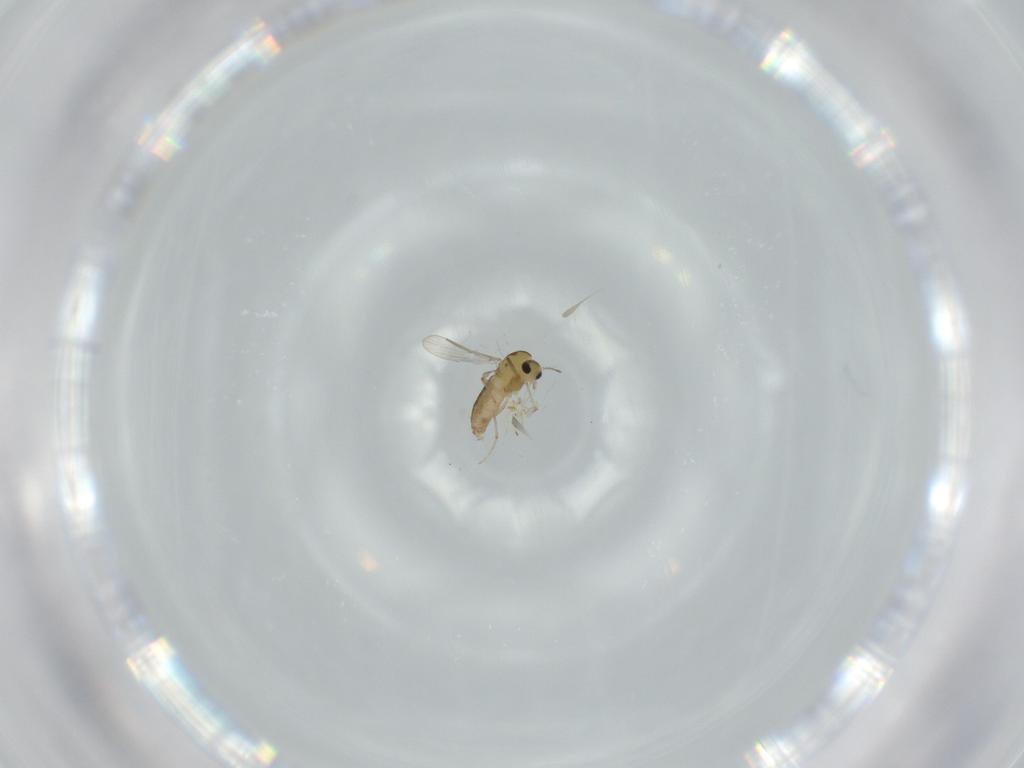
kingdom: Animalia
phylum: Arthropoda
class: Insecta
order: Diptera
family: Chironomidae
